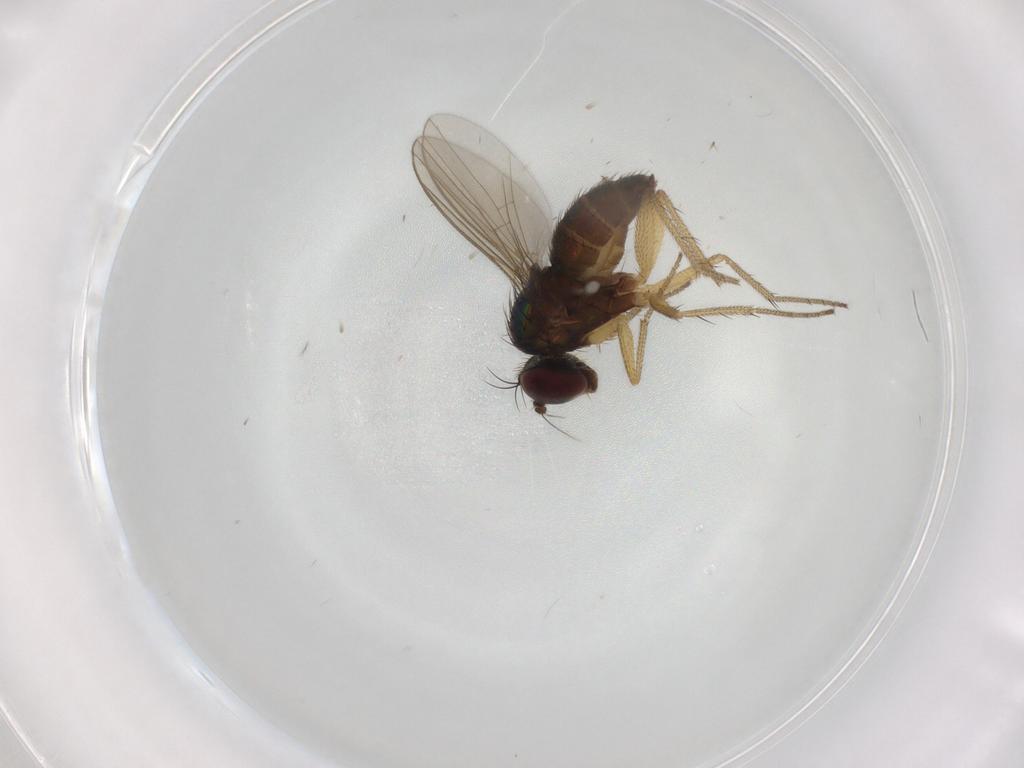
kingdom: Animalia
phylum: Arthropoda
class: Insecta
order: Diptera
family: Dolichopodidae
